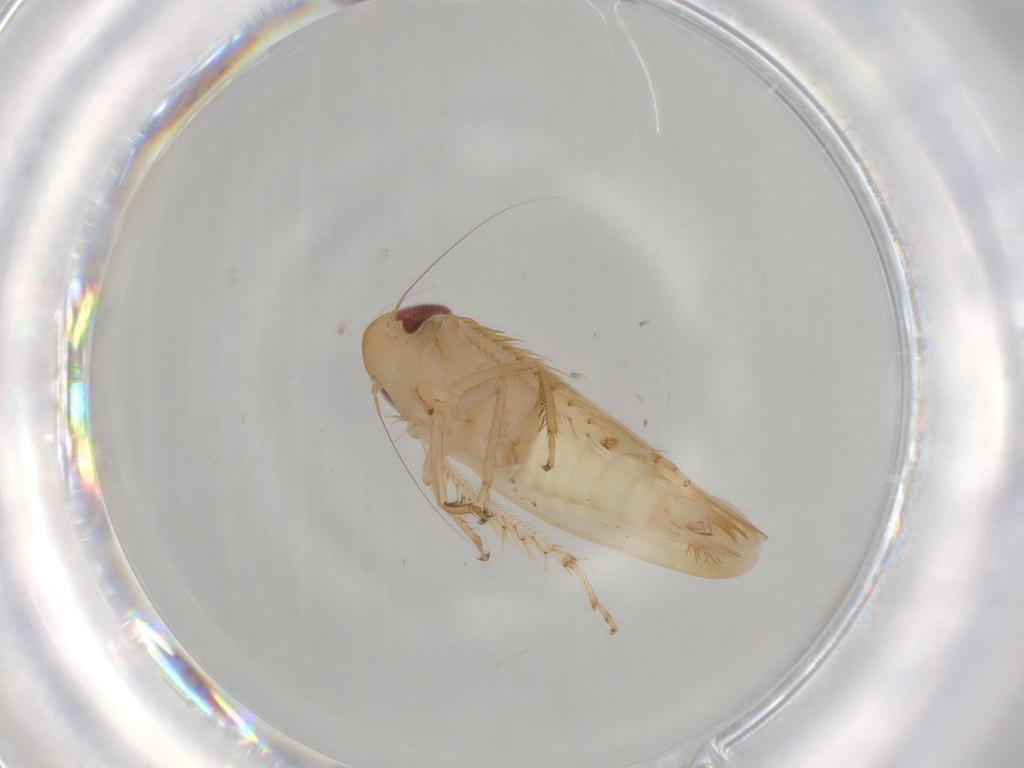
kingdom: Animalia
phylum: Arthropoda
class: Insecta
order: Hemiptera
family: Cicadellidae
